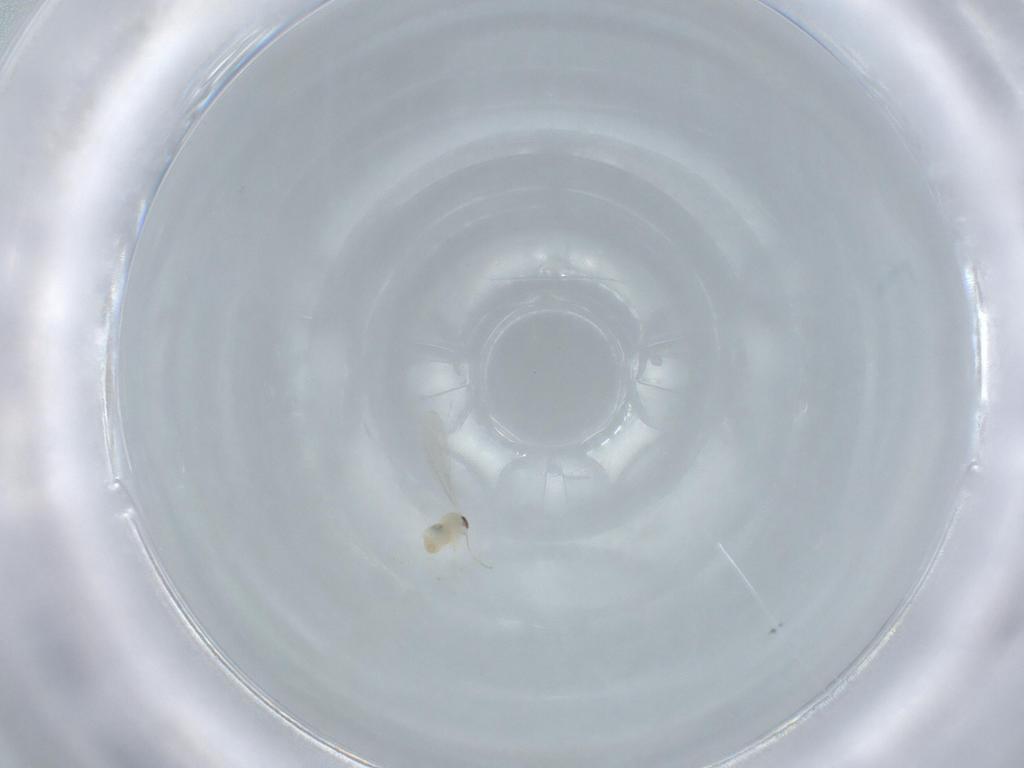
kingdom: Animalia
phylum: Arthropoda
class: Insecta
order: Diptera
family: Cecidomyiidae
